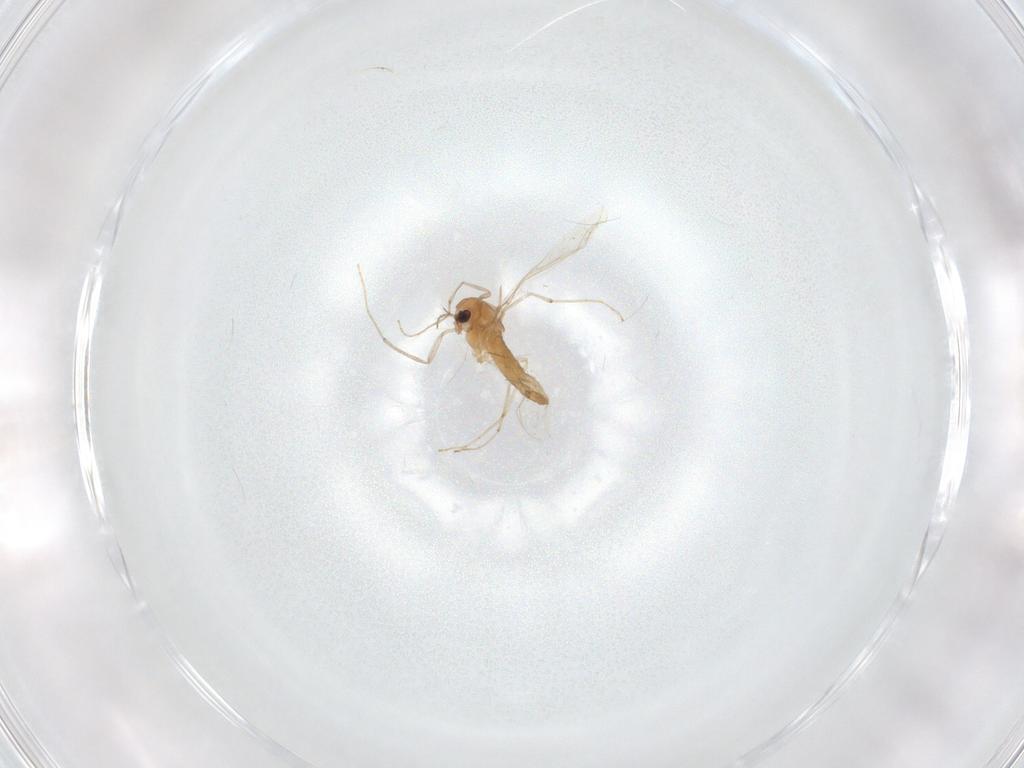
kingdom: Animalia
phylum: Arthropoda
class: Insecta
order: Diptera
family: Chironomidae
